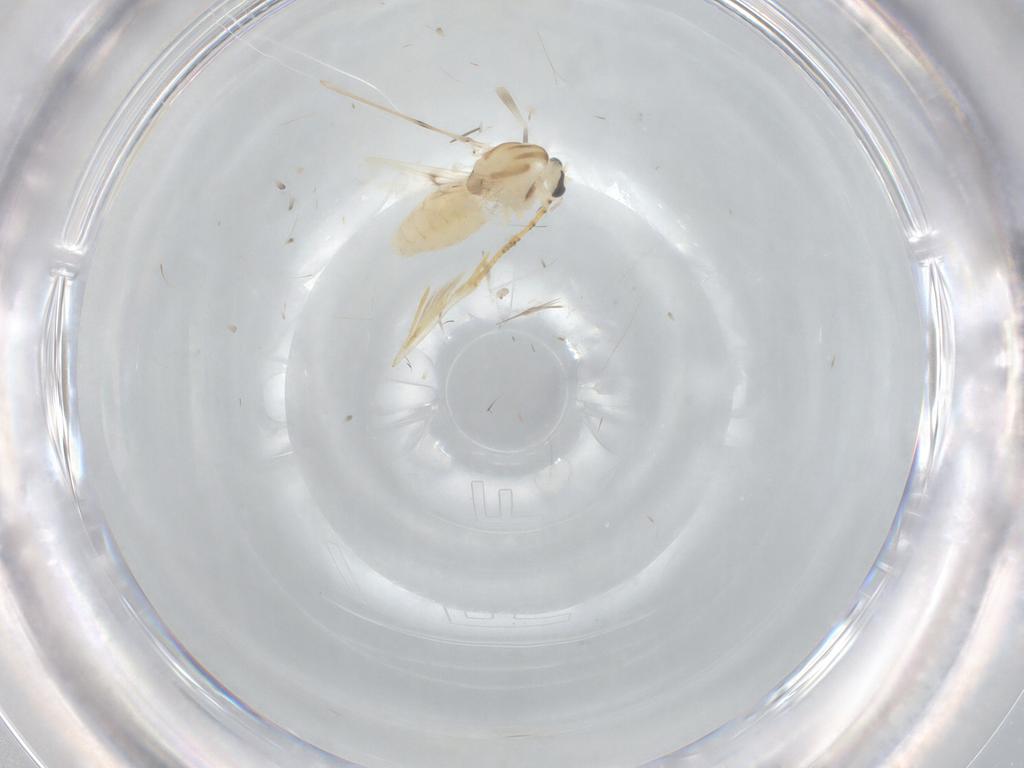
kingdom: Animalia
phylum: Arthropoda
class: Insecta
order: Diptera
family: Chironomidae
